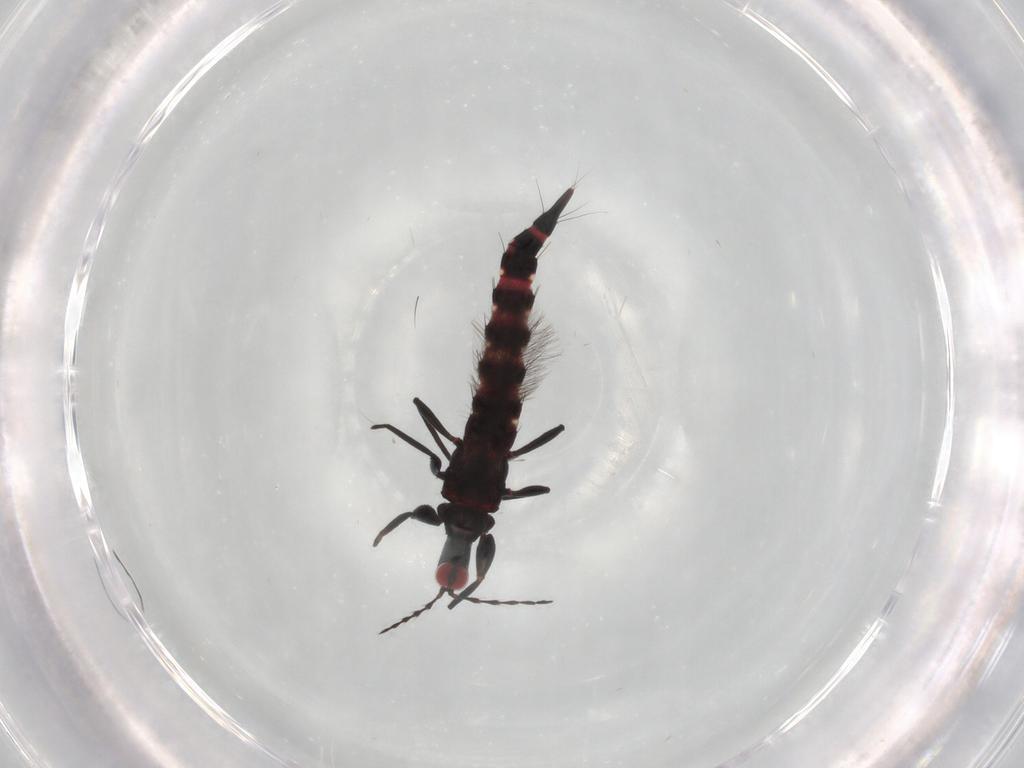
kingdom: Animalia
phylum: Arthropoda
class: Insecta
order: Thysanoptera
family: Phlaeothripidae
